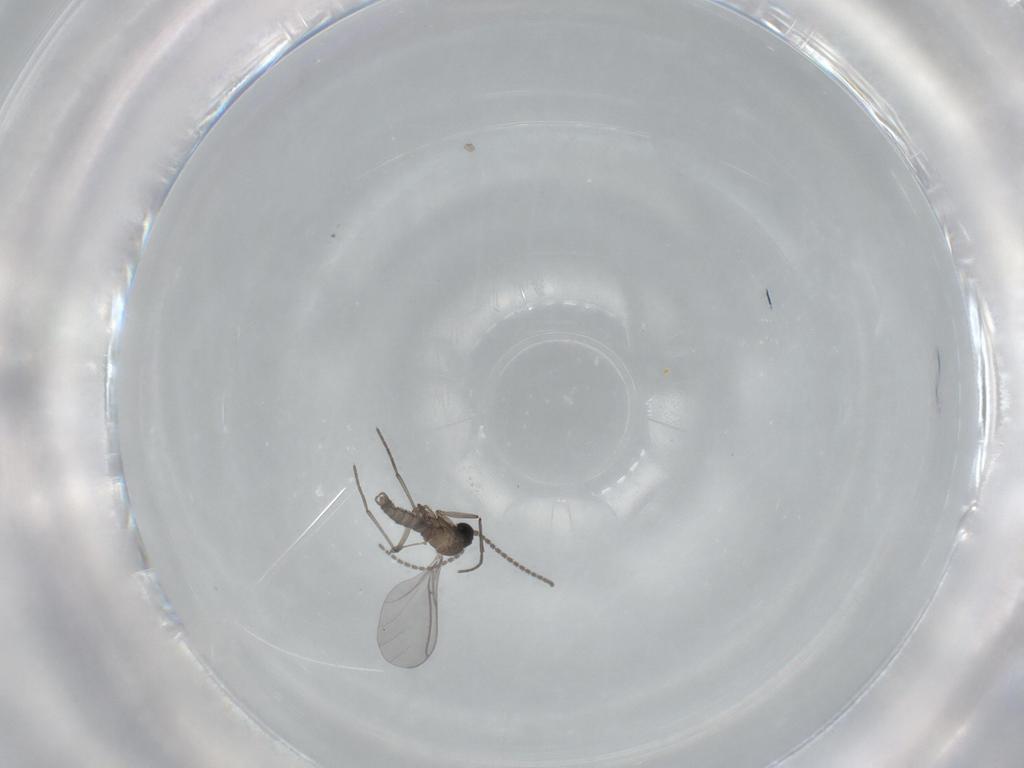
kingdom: Animalia
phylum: Arthropoda
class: Insecta
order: Diptera
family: Sciaridae
